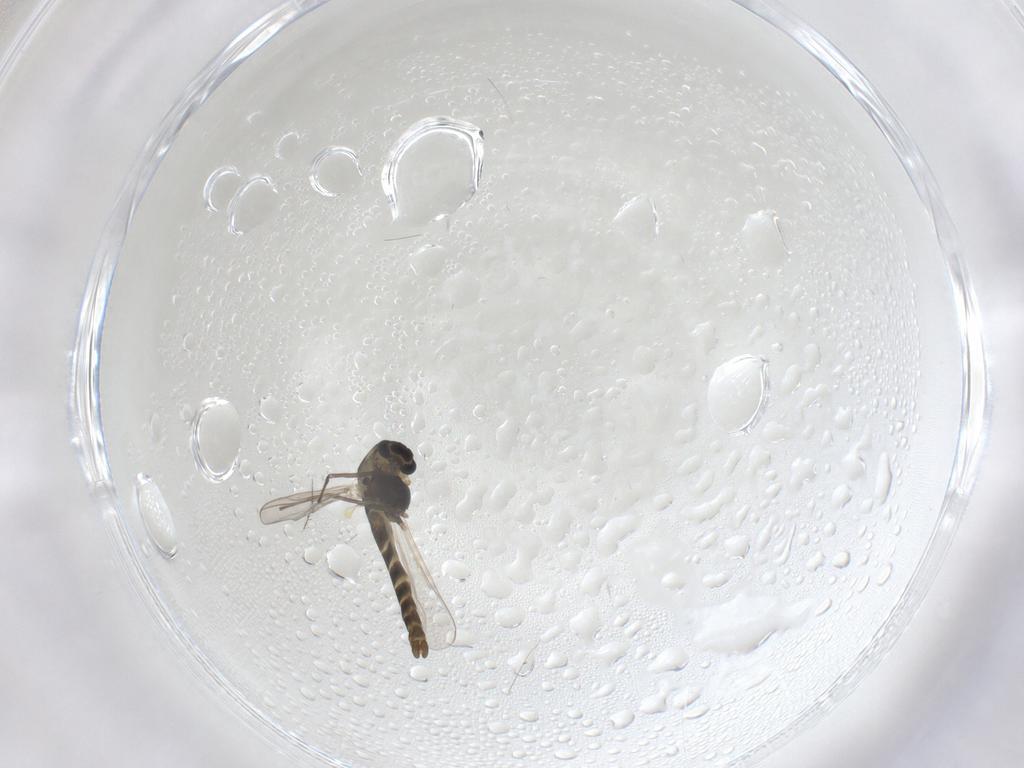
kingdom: Animalia
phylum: Arthropoda
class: Insecta
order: Diptera
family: Chironomidae
